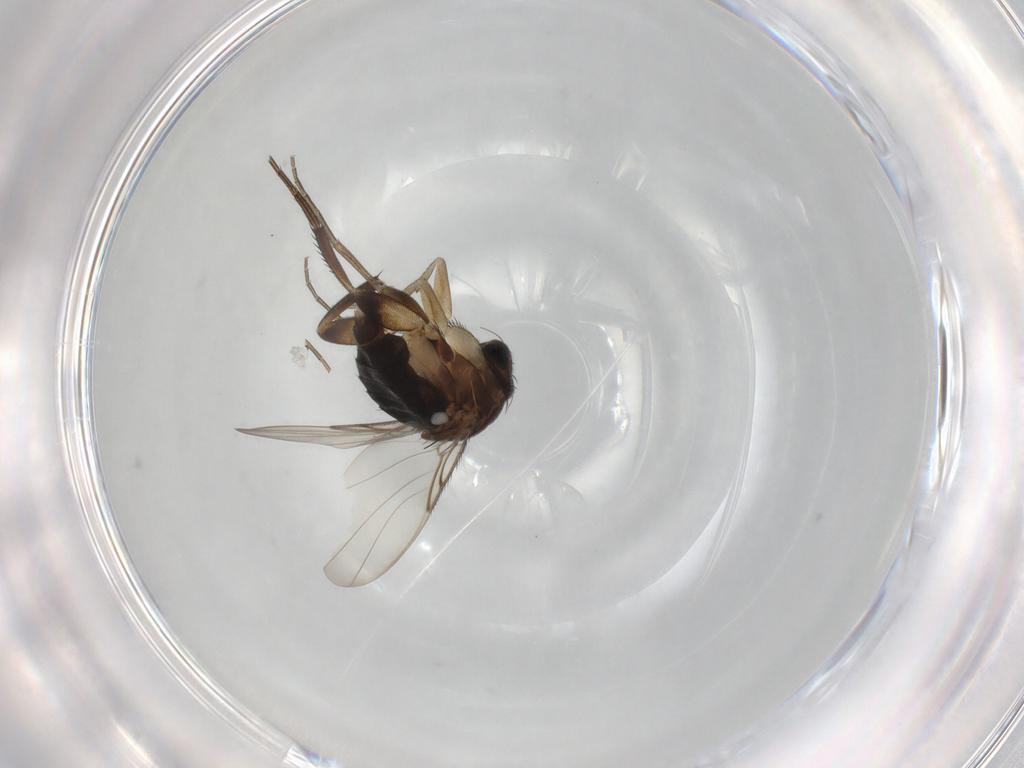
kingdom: Animalia
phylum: Arthropoda
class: Insecta
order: Diptera
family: Phoridae
